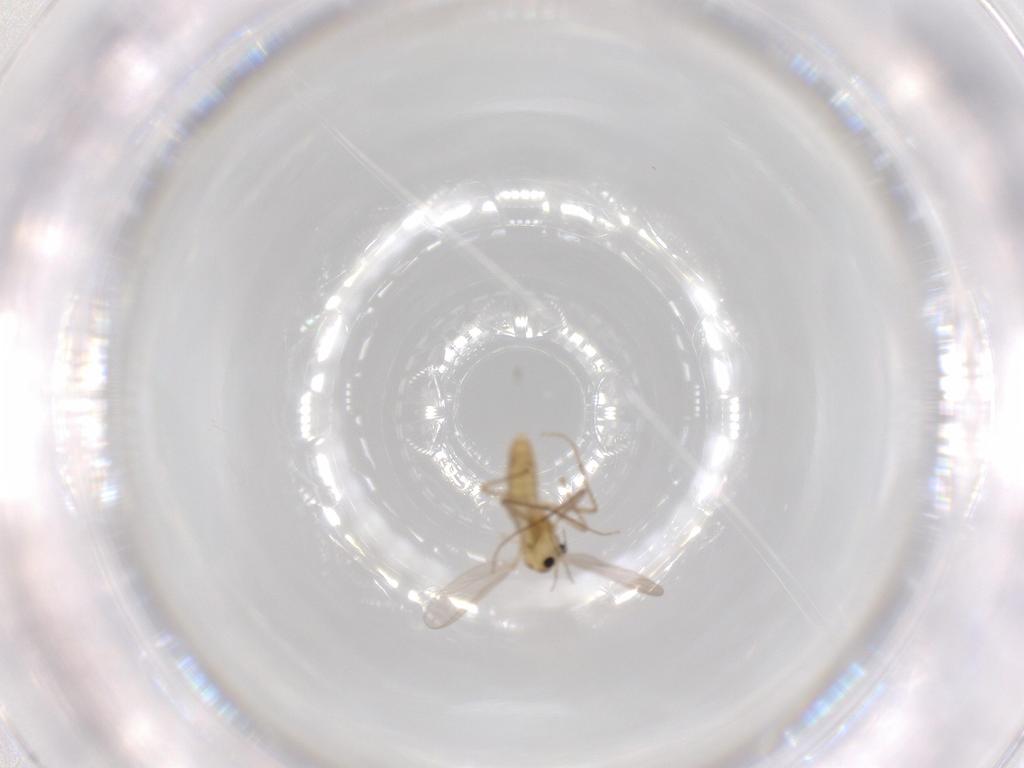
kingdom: Animalia
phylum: Arthropoda
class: Insecta
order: Diptera
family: Chironomidae
